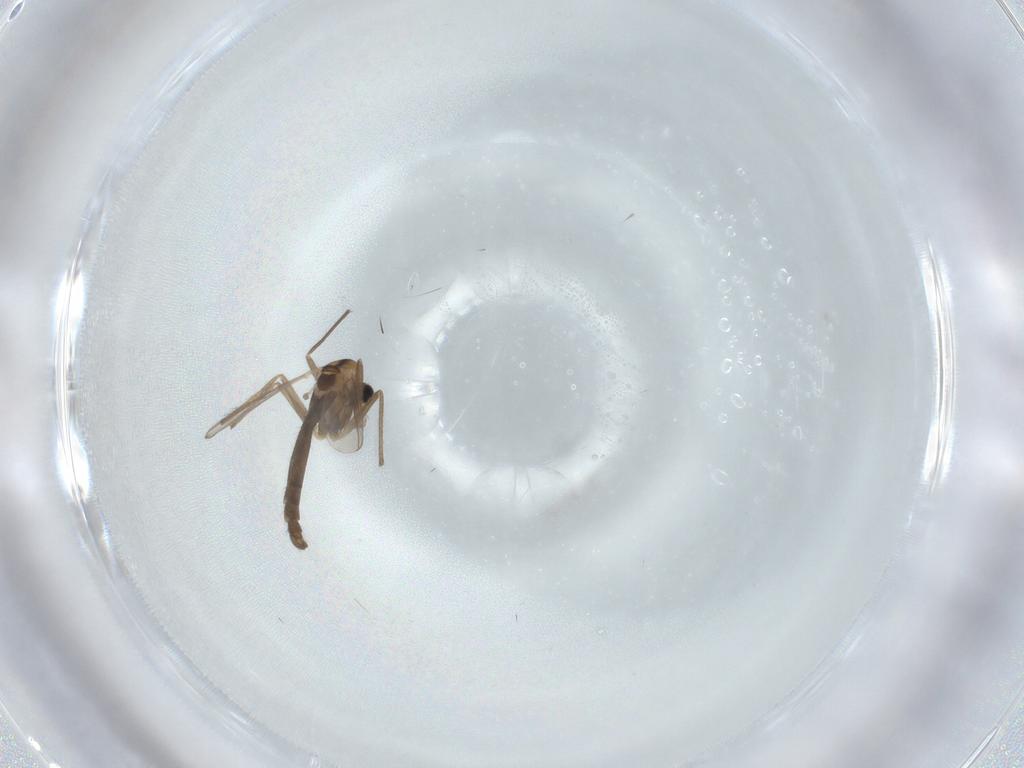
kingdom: Animalia
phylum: Arthropoda
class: Insecta
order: Diptera
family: Chironomidae
